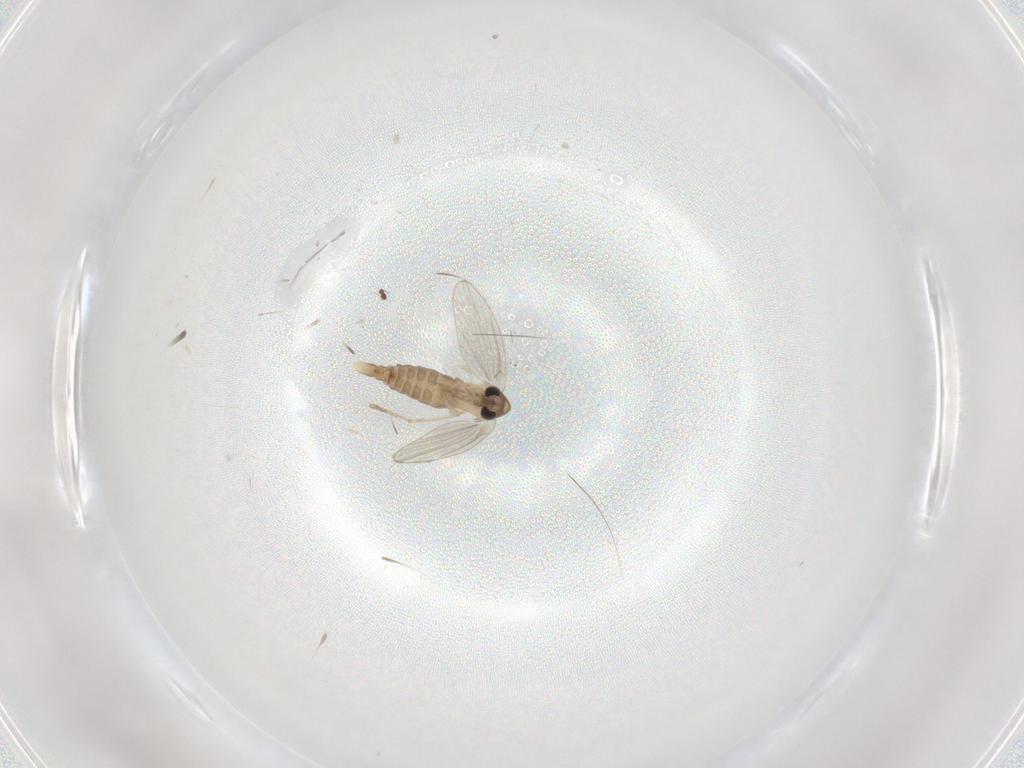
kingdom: Animalia
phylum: Arthropoda
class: Insecta
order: Diptera
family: Cecidomyiidae
